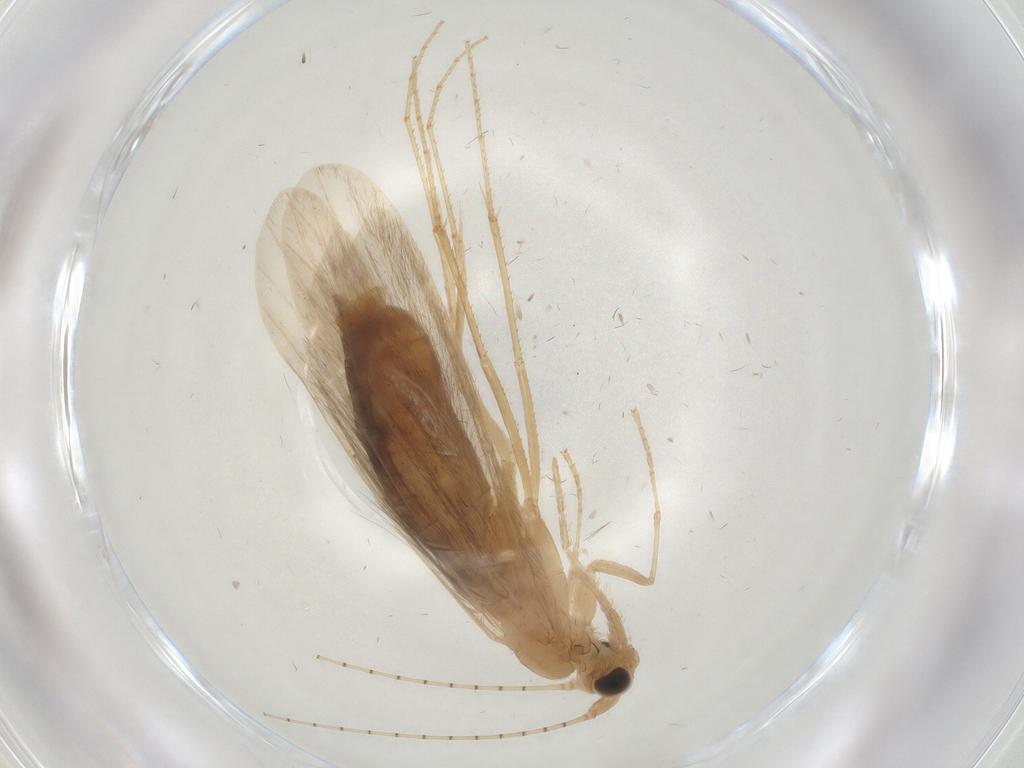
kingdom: Animalia
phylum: Arthropoda
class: Insecta
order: Trichoptera
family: Leptoceridae
